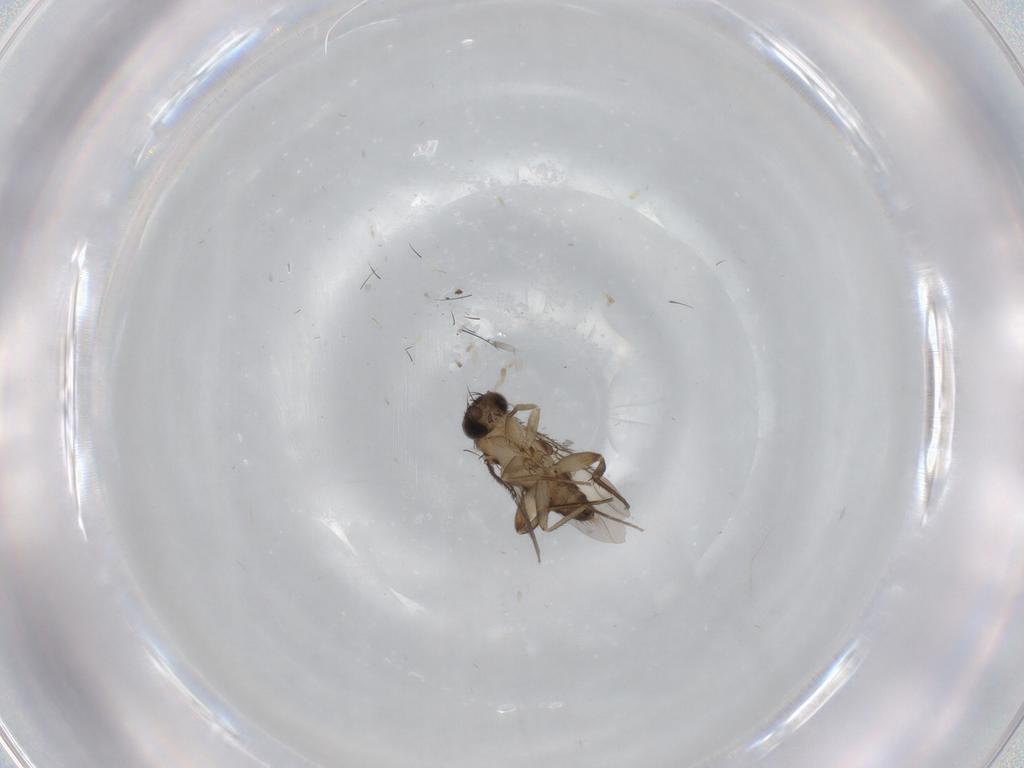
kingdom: Animalia
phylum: Arthropoda
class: Insecta
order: Diptera
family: Phoridae
